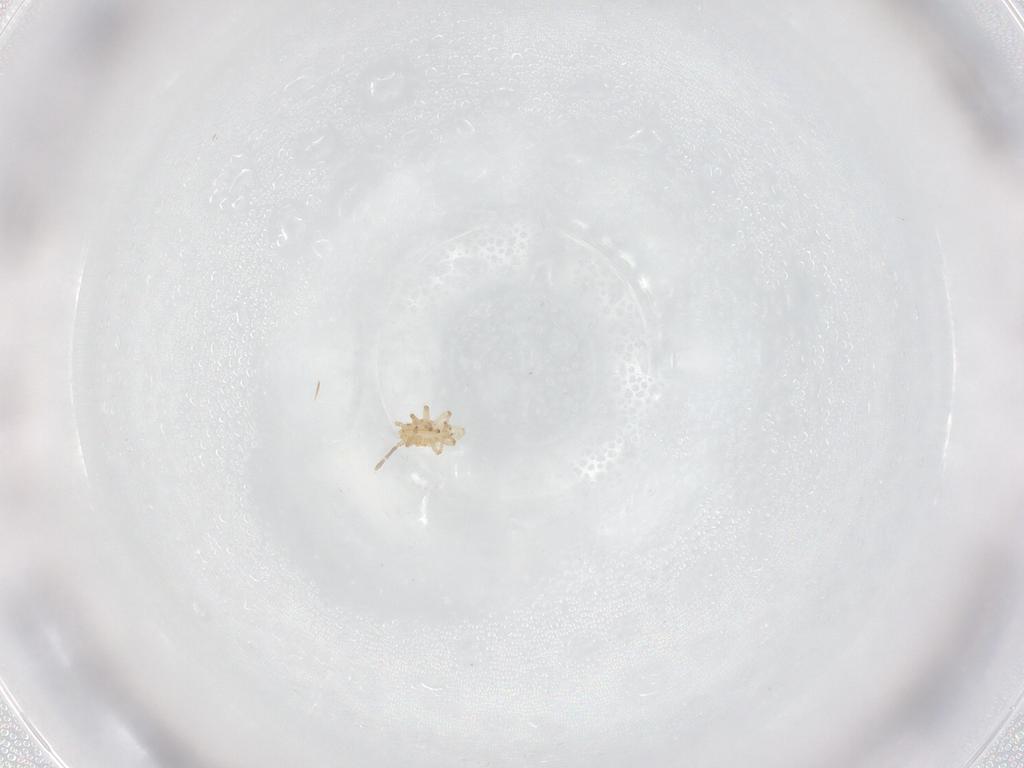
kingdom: Animalia
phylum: Arthropoda
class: Insecta
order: Hemiptera
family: Tingidae
